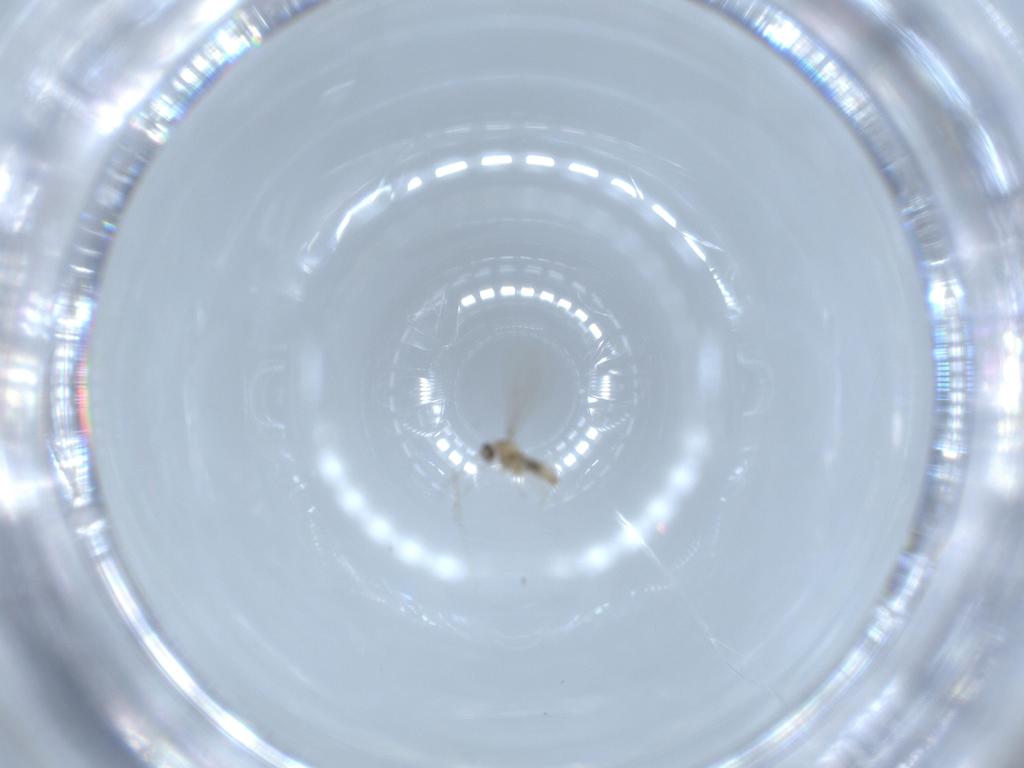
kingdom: Animalia
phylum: Arthropoda
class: Insecta
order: Diptera
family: Cecidomyiidae
